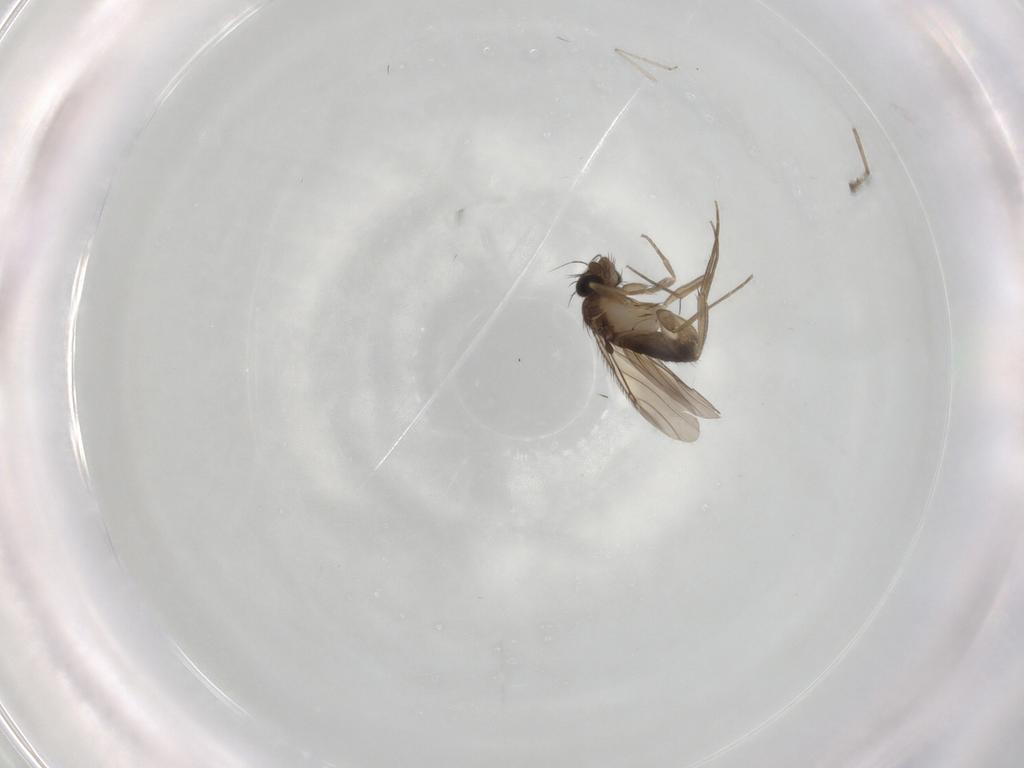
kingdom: Animalia
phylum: Arthropoda
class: Insecta
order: Diptera
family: Phoridae
